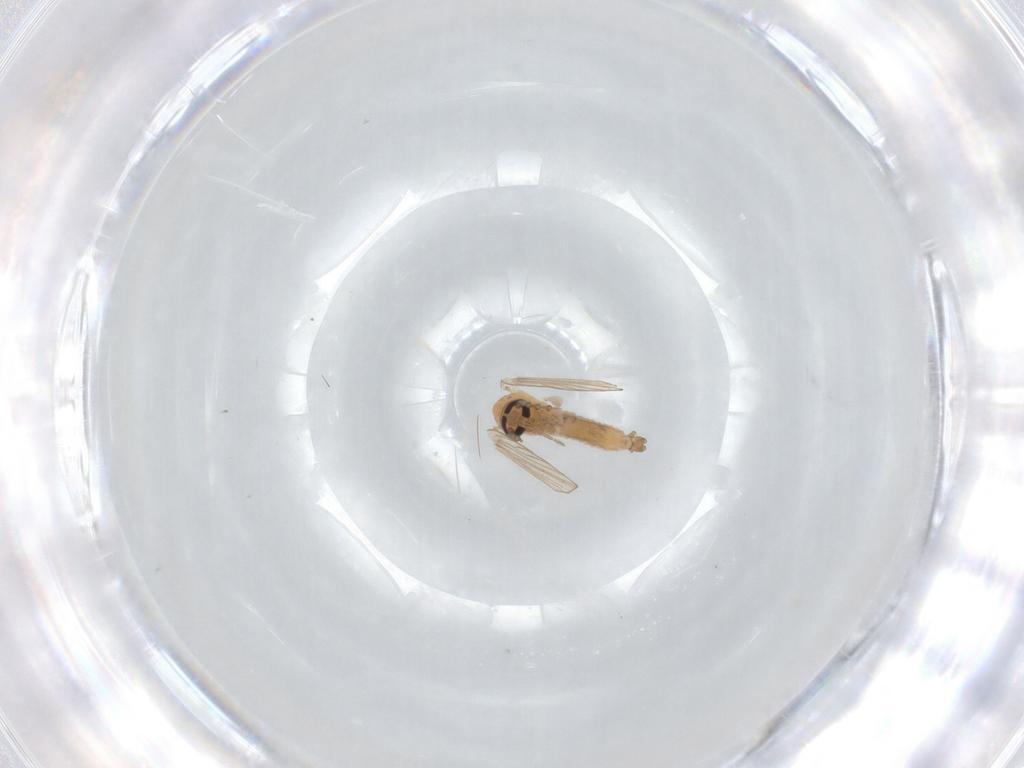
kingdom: Animalia
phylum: Arthropoda
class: Insecta
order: Diptera
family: Psychodidae
